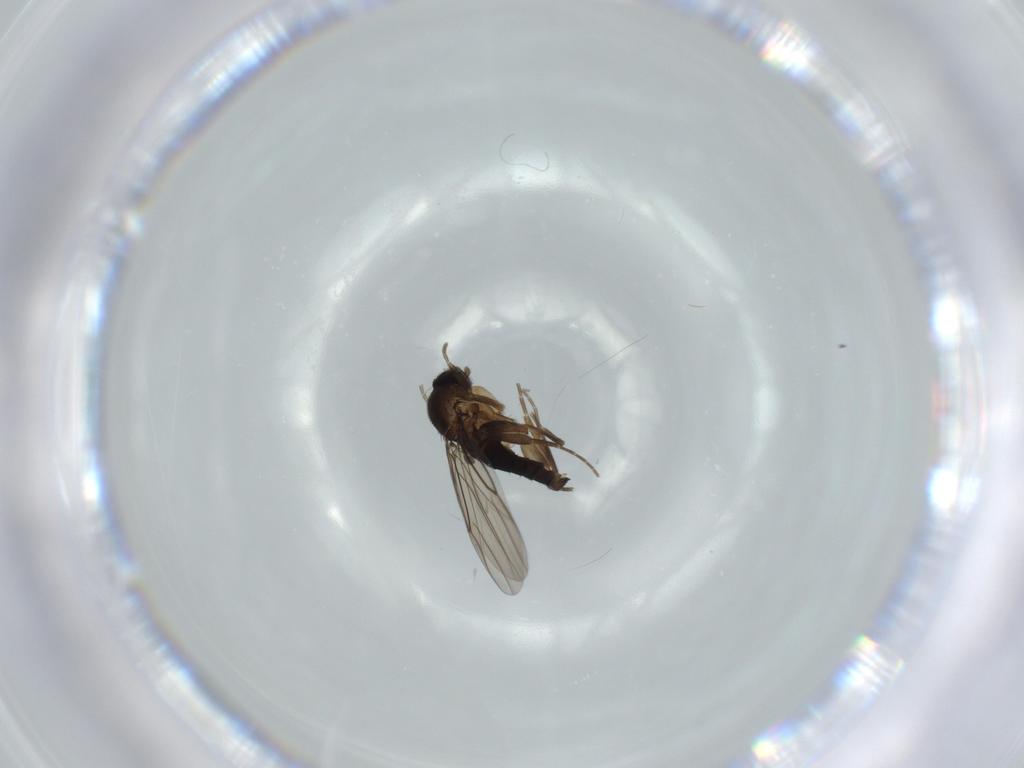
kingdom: Animalia
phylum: Arthropoda
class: Insecta
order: Diptera
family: Phoridae
